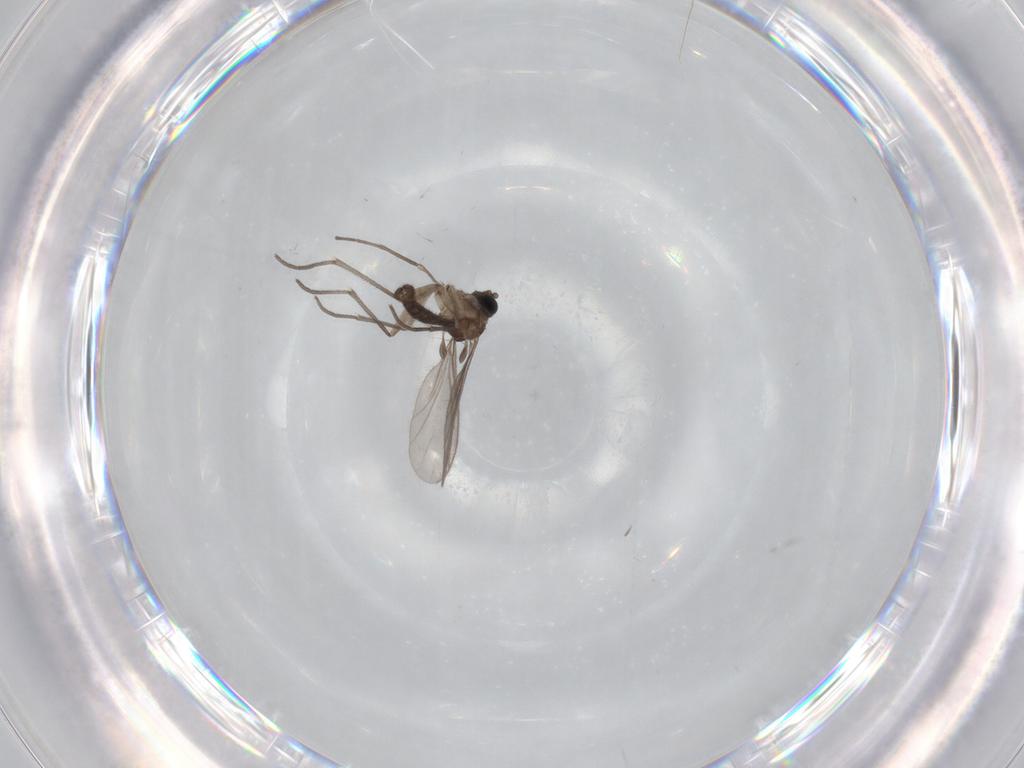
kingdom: Animalia
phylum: Arthropoda
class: Insecta
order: Diptera
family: Sciaridae
